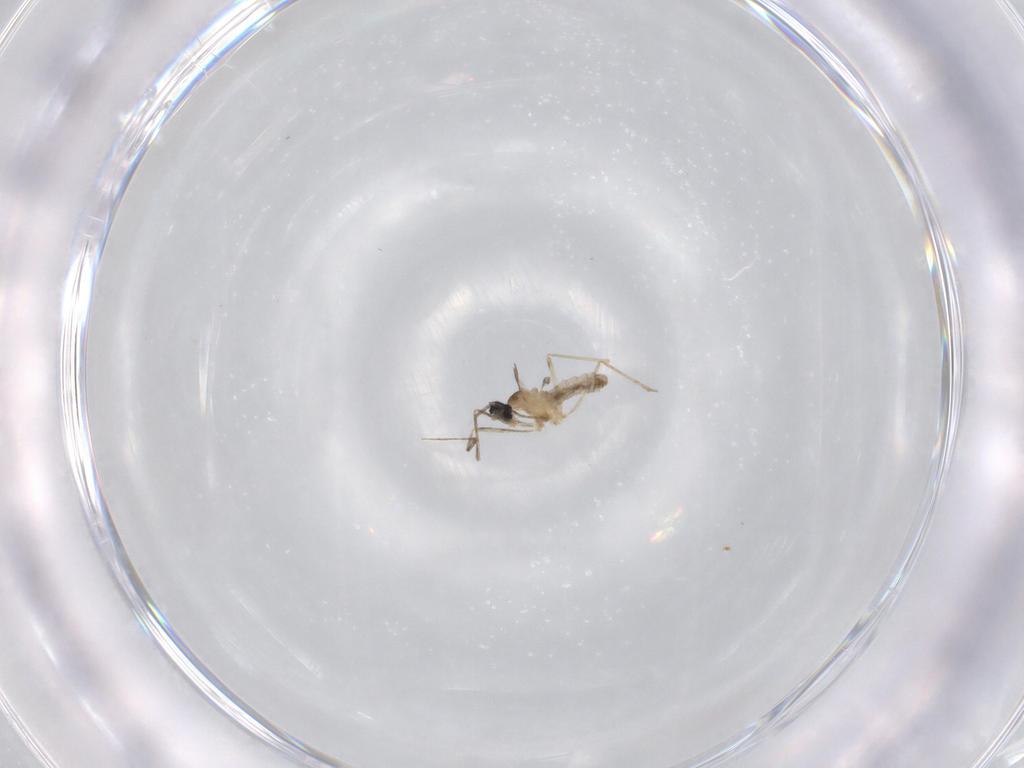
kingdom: Animalia
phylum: Arthropoda
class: Insecta
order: Diptera
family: Cecidomyiidae
